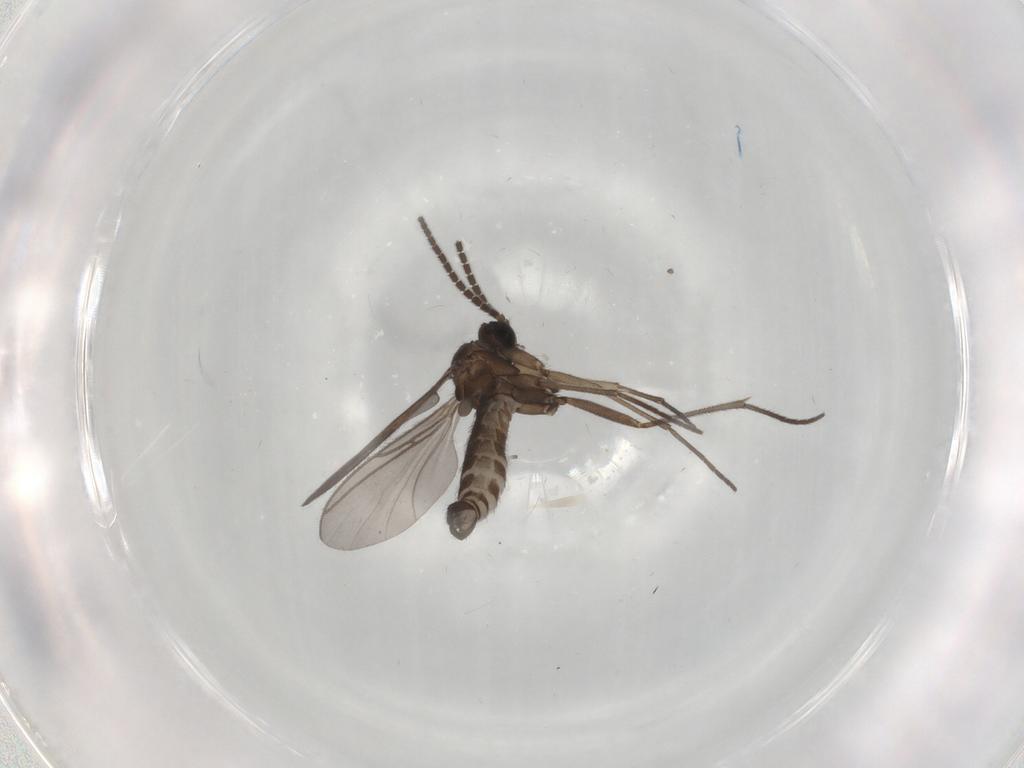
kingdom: Animalia
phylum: Arthropoda
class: Insecta
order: Diptera
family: Sciaridae
